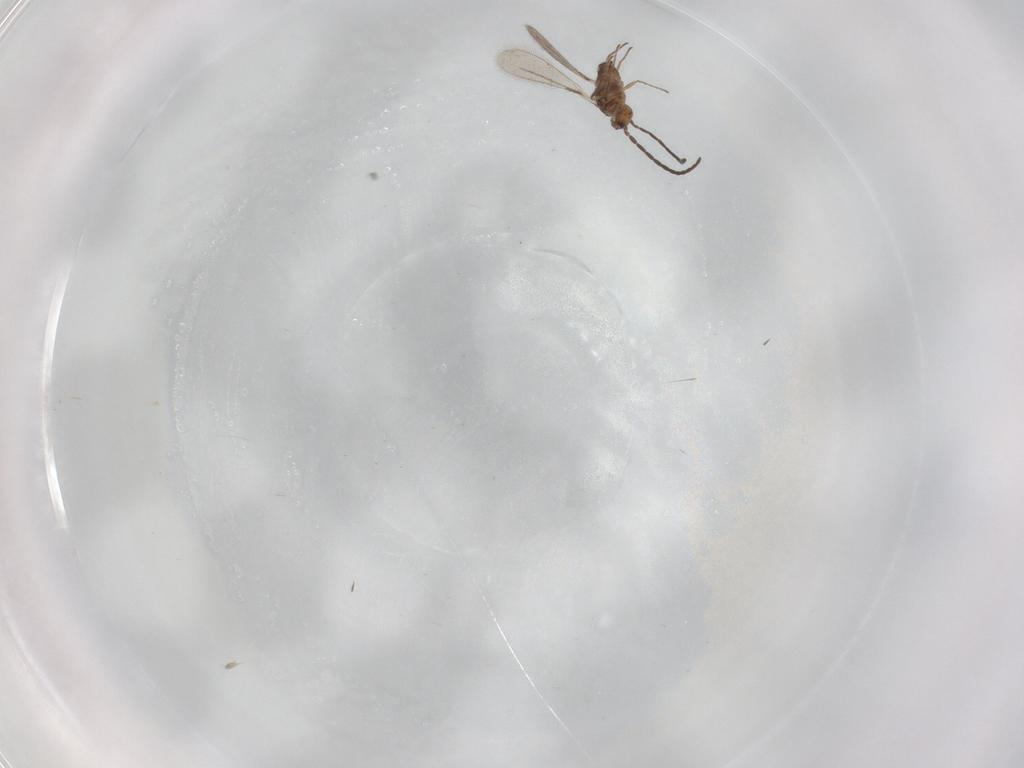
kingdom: Animalia
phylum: Arthropoda
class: Insecta
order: Hymenoptera
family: Mymaridae
